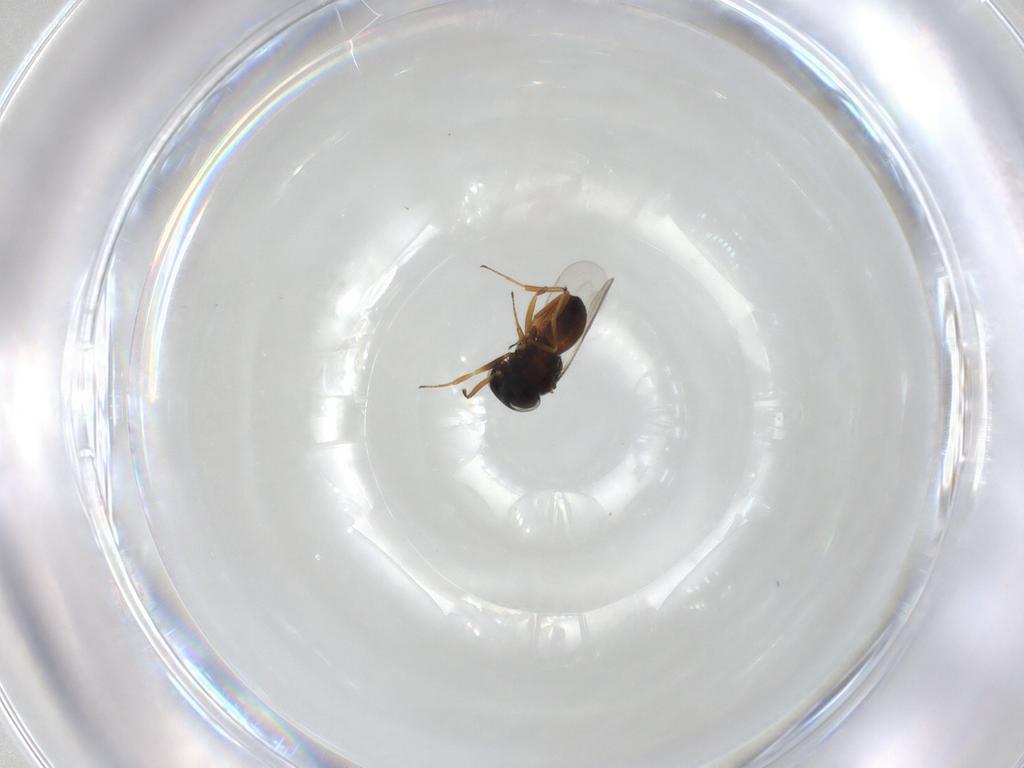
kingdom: Animalia
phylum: Arthropoda
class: Insecta
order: Hymenoptera
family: Scelionidae
